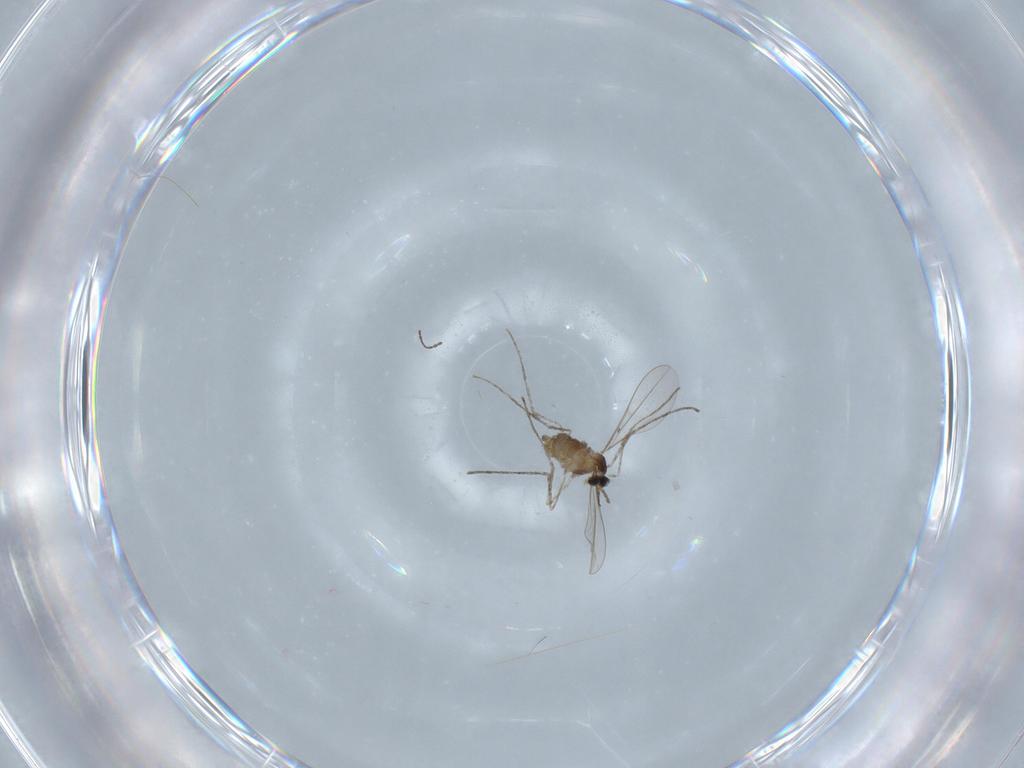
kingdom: Animalia
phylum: Arthropoda
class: Insecta
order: Diptera
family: Cecidomyiidae
